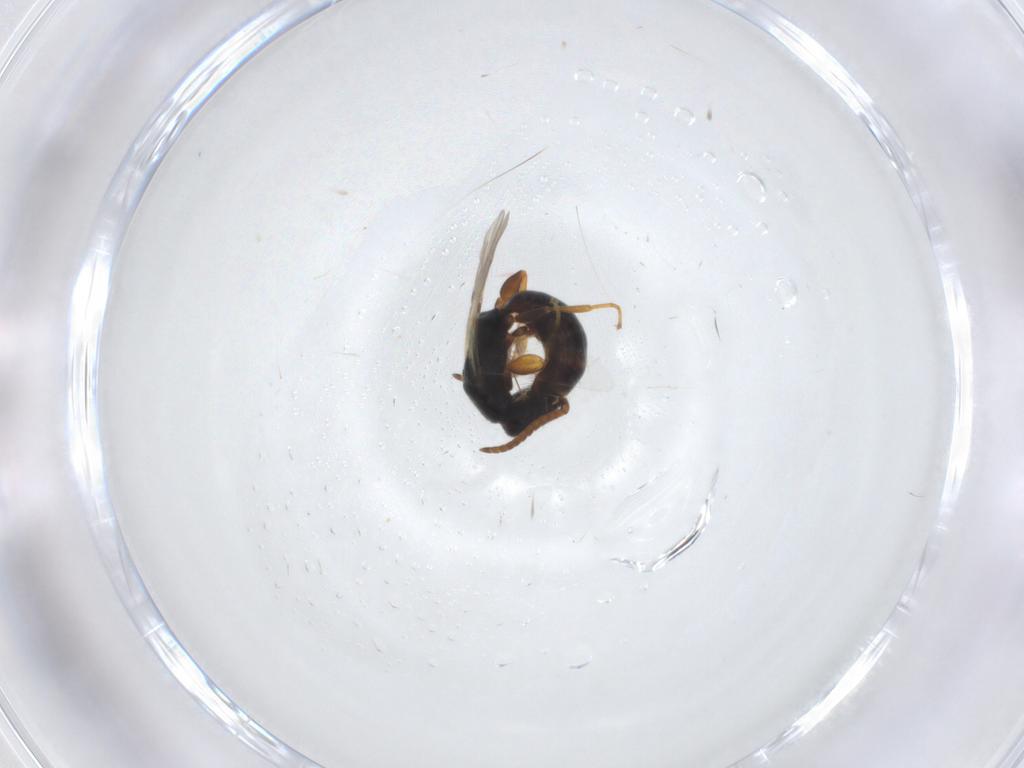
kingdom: Animalia
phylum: Arthropoda
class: Insecta
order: Hymenoptera
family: Bethylidae
